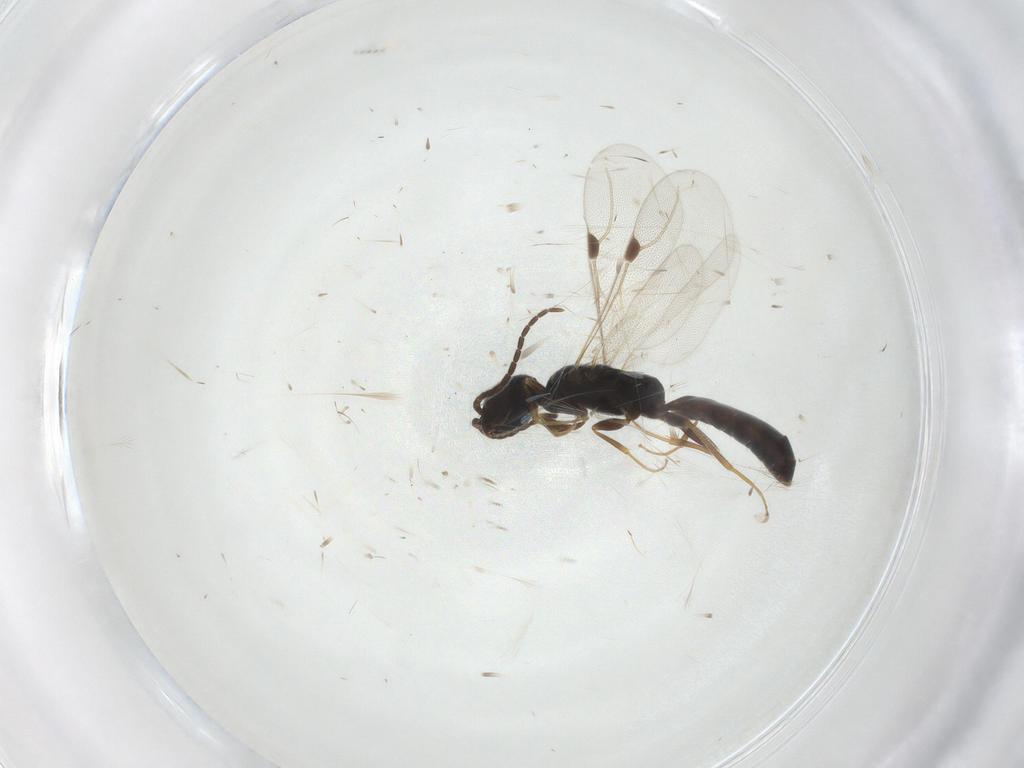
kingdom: Animalia
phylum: Arthropoda
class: Insecta
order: Hymenoptera
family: Bethylidae
